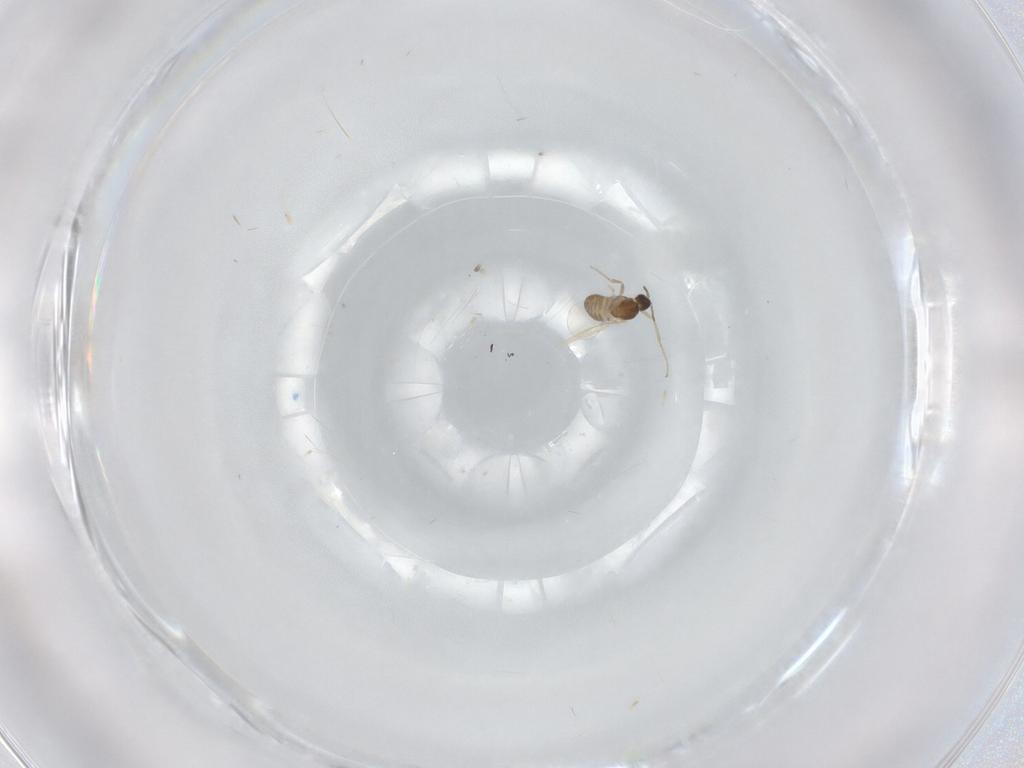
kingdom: Animalia
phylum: Arthropoda
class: Insecta
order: Diptera
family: Cecidomyiidae
